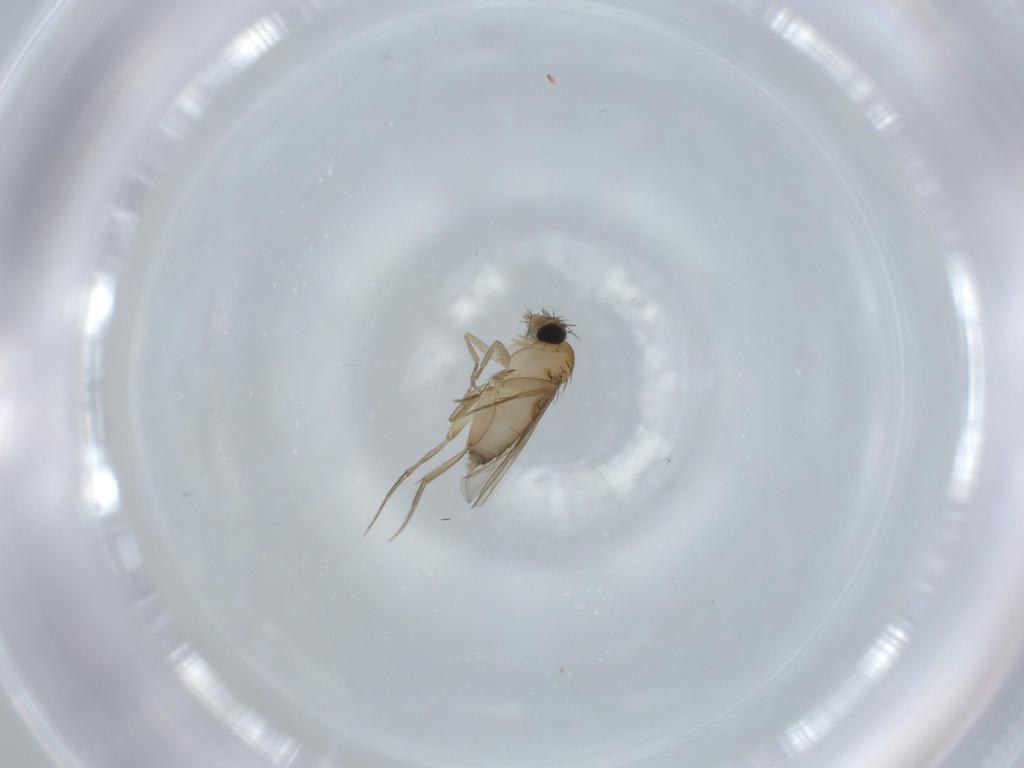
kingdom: Animalia
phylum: Arthropoda
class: Insecta
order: Diptera
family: Phoridae
